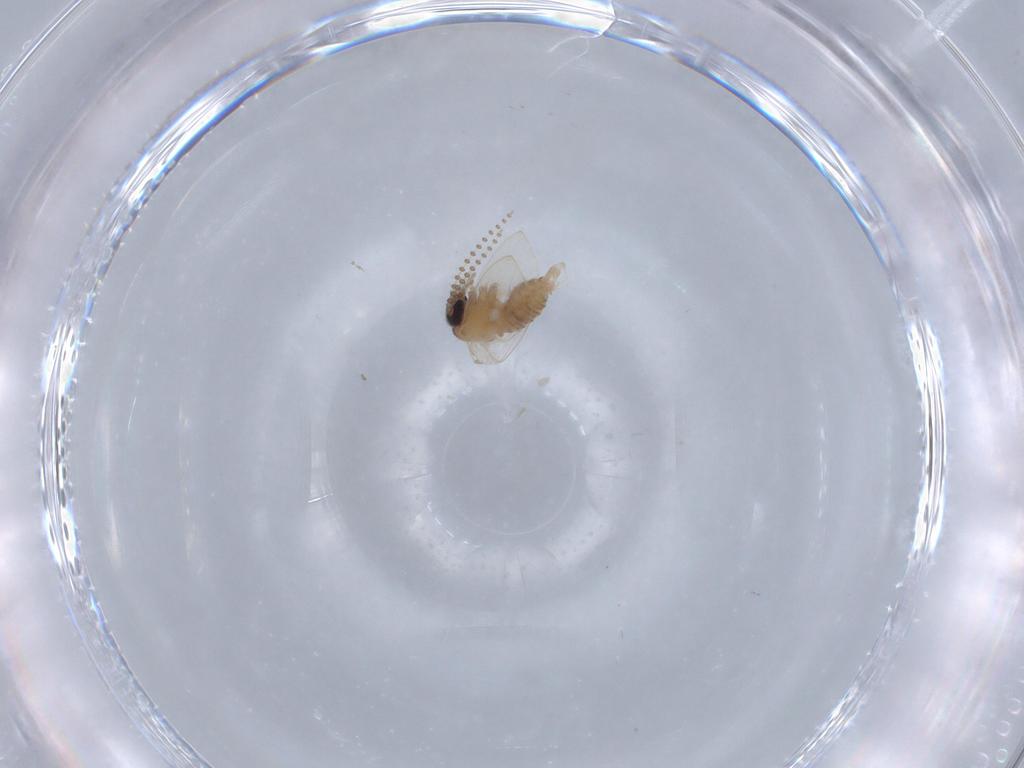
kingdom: Animalia
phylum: Arthropoda
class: Insecta
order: Diptera
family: Psychodidae
